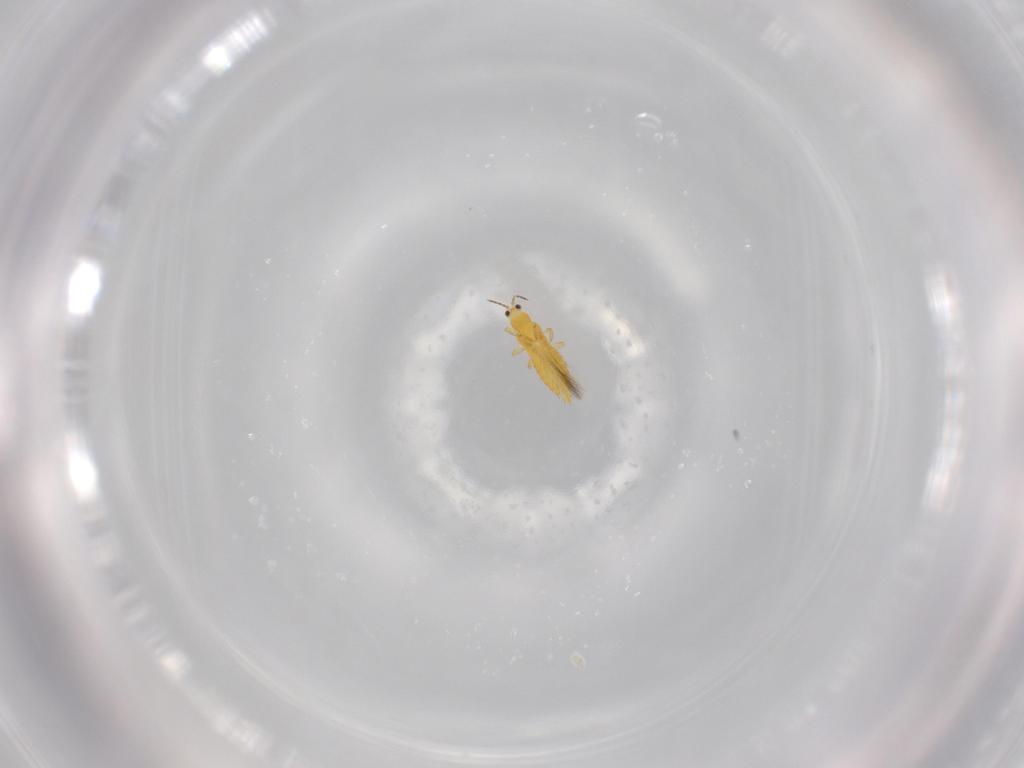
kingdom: Animalia
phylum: Arthropoda
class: Insecta
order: Thysanoptera
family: Thripidae
